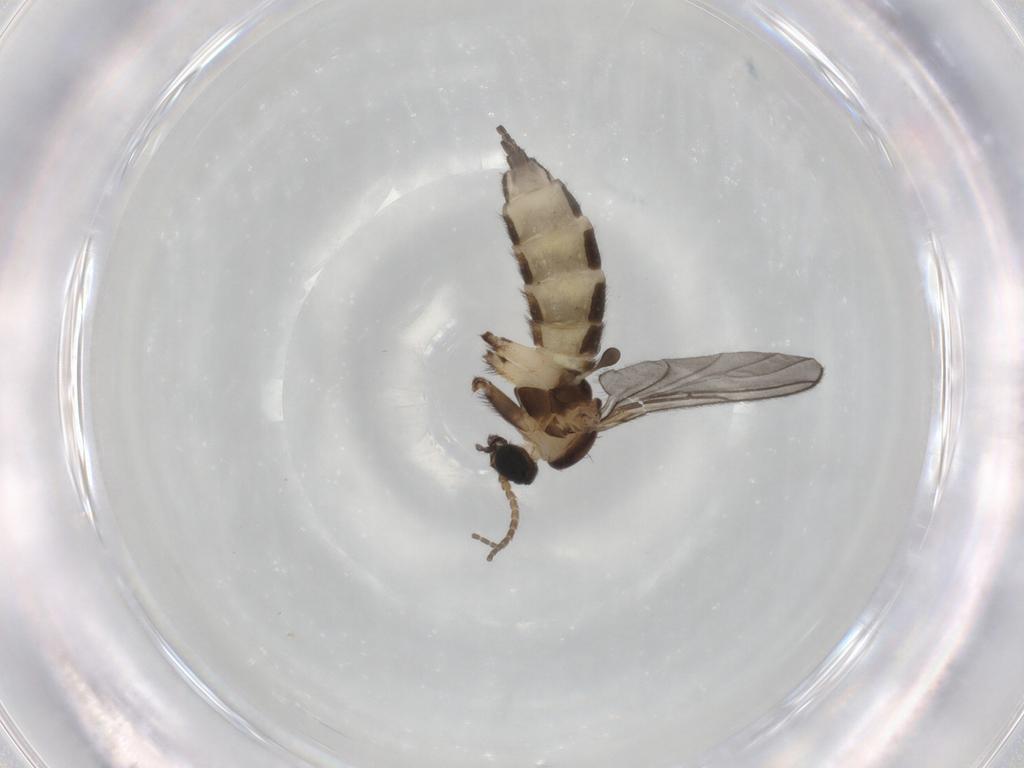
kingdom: Animalia
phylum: Arthropoda
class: Insecta
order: Diptera
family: Sciaridae
